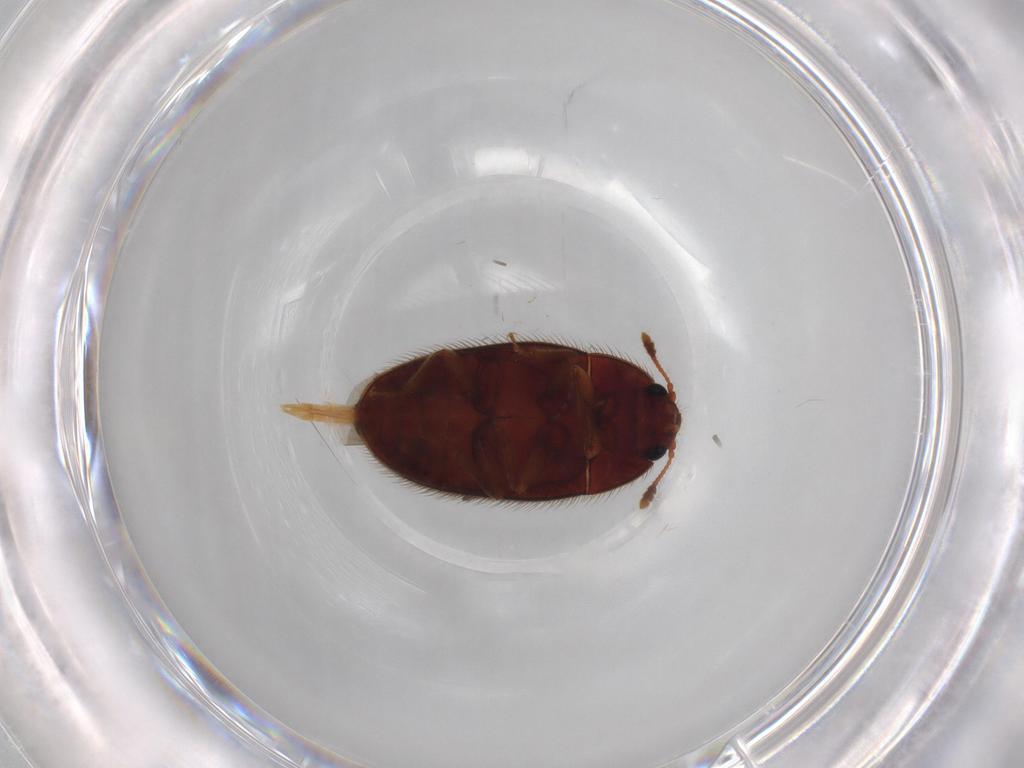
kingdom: Animalia
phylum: Arthropoda
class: Insecta
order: Coleoptera
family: Biphyllidae
